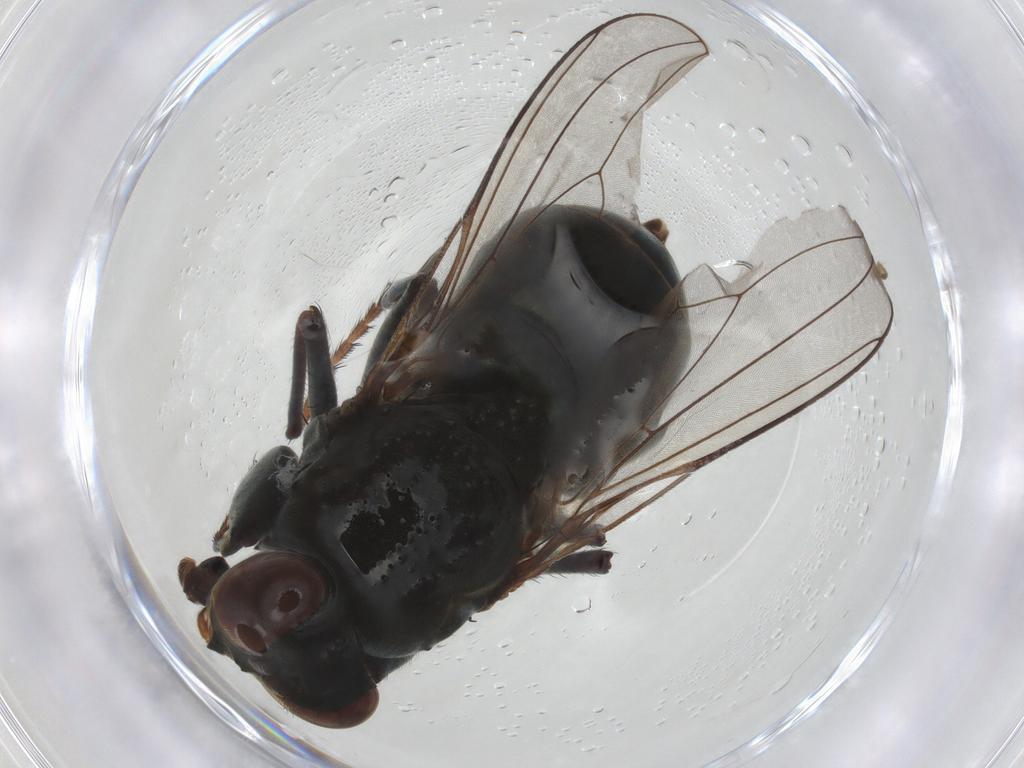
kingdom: Animalia
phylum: Arthropoda
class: Insecta
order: Diptera
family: Ephydridae
